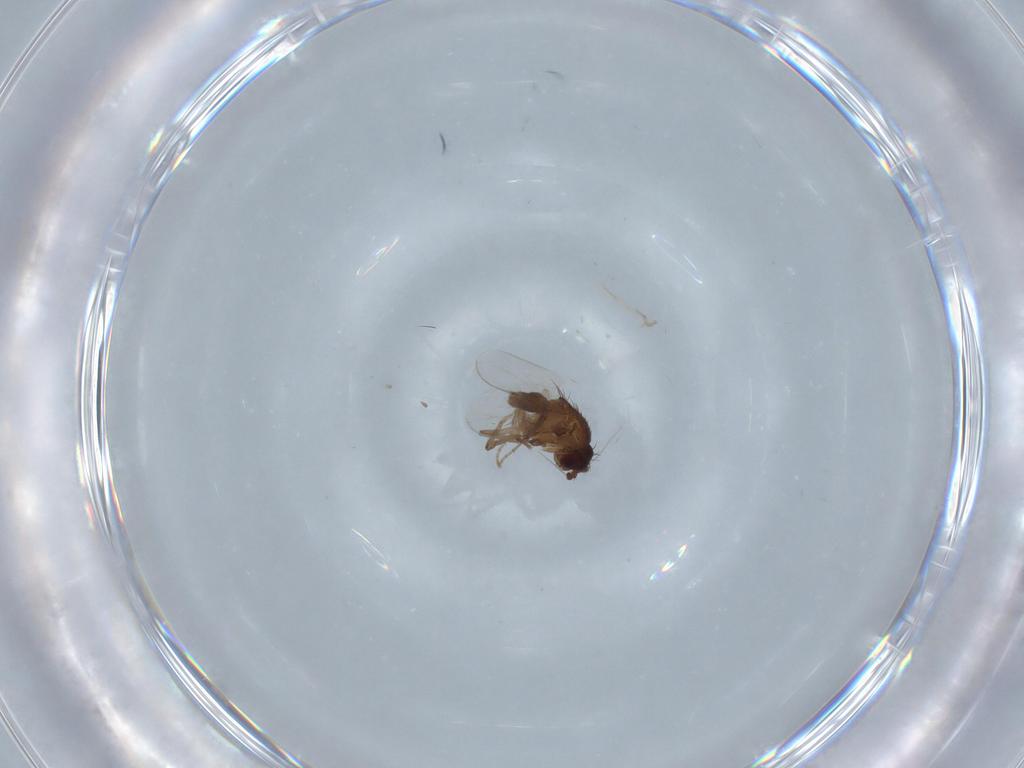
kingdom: Animalia
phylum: Arthropoda
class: Insecta
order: Diptera
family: Sphaeroceridae
